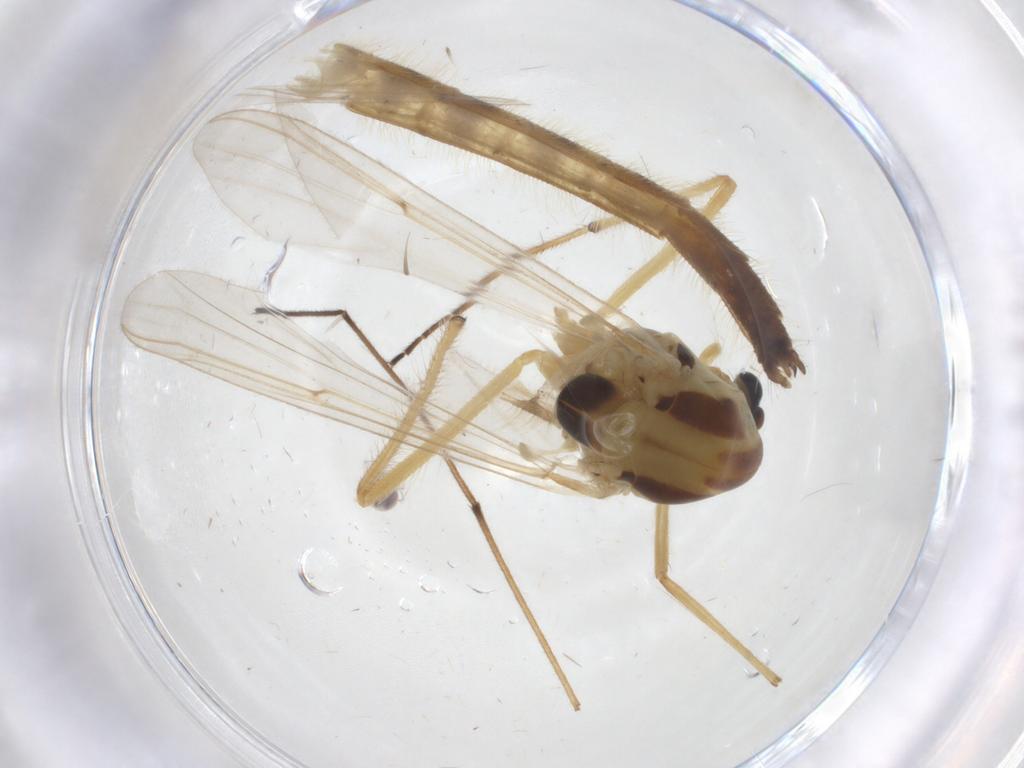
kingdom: Animalia
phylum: Arthropoda
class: Insecta
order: Diptera
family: Chironomidae
